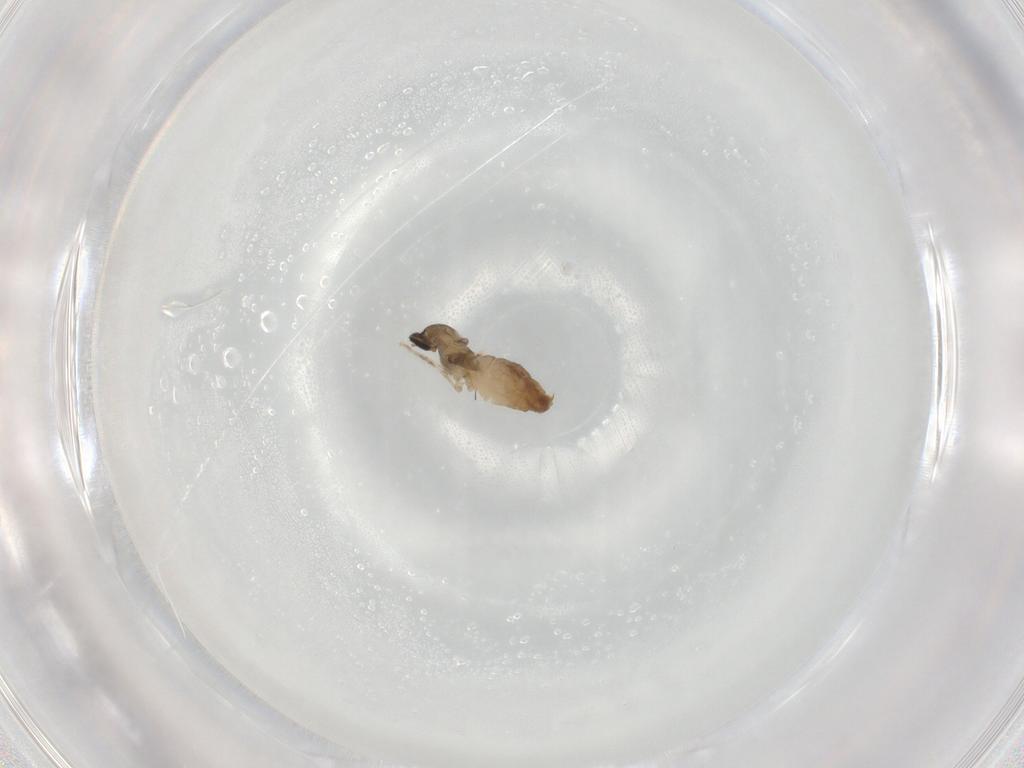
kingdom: Animalia
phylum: Arthropoda
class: Insecta
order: Diptera
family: Cecidomyiidae
